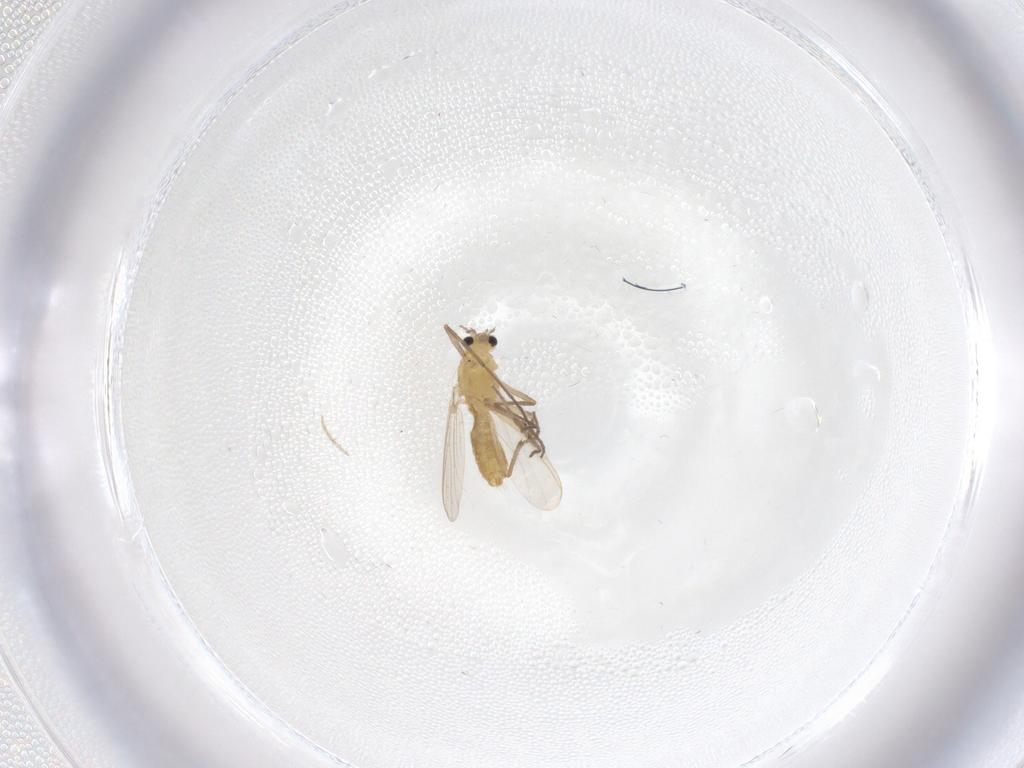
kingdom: Animalia
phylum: Arthropoda
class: Insecta
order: Diptera
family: Chironomidae
